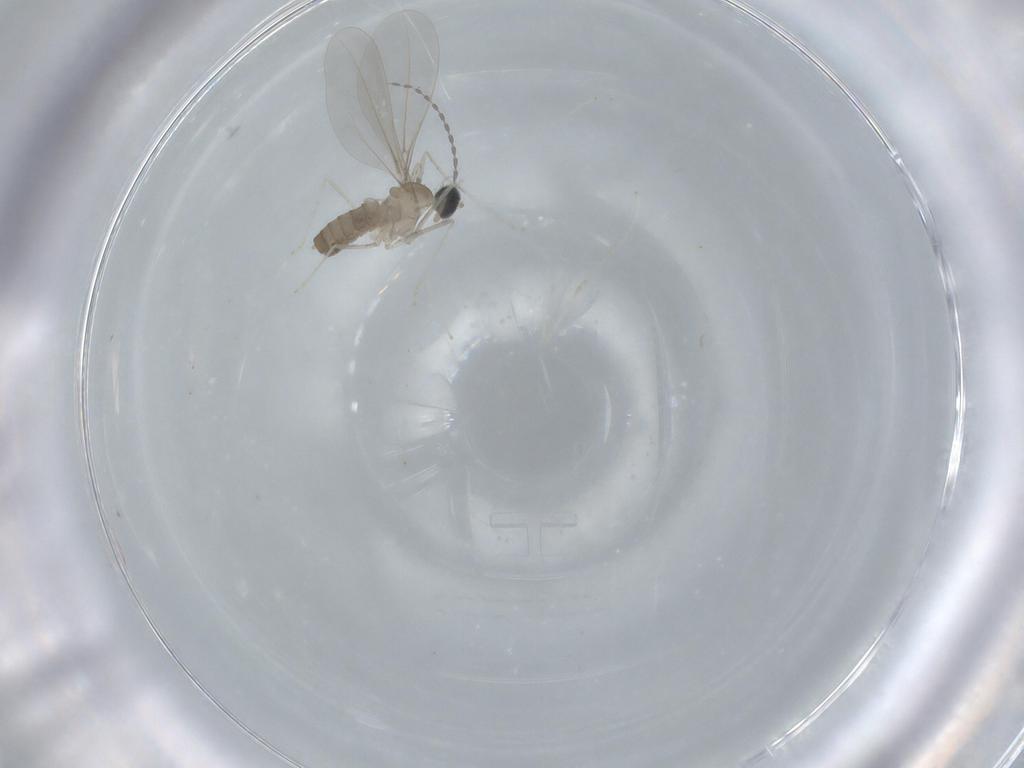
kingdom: Animalia
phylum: Arthropoda
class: Insecta
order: Diptera
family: Cecidomyiidae
